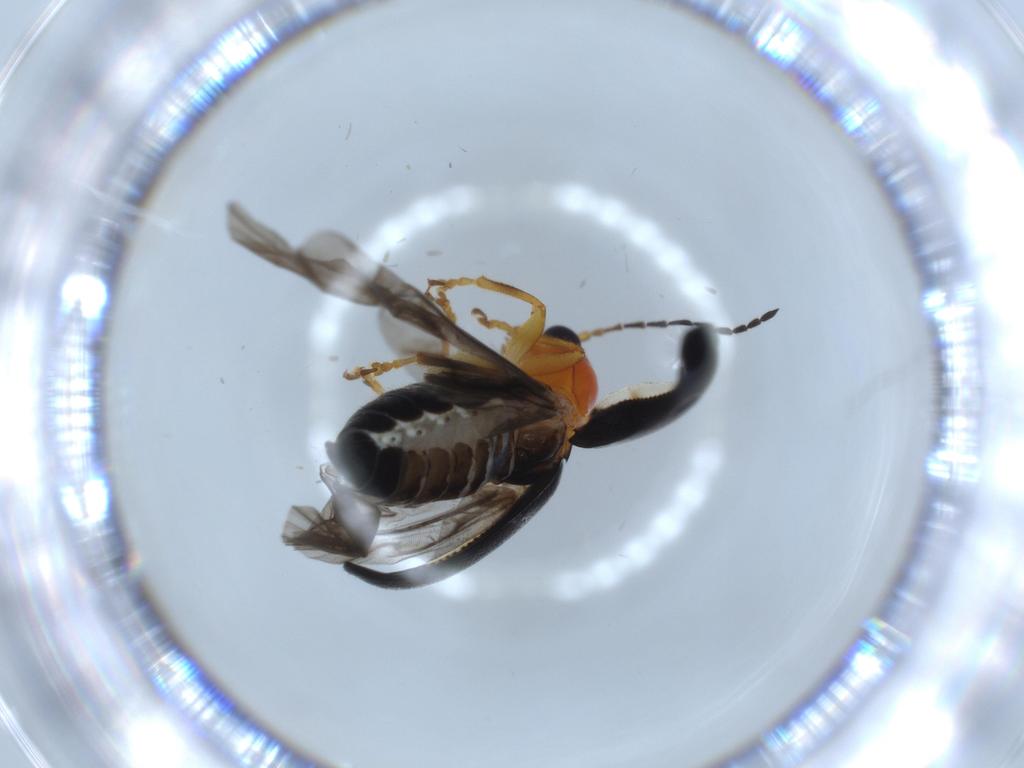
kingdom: Animalia
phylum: Arthropoda
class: Insecta
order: Coleoptera
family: Chrysomelidae
